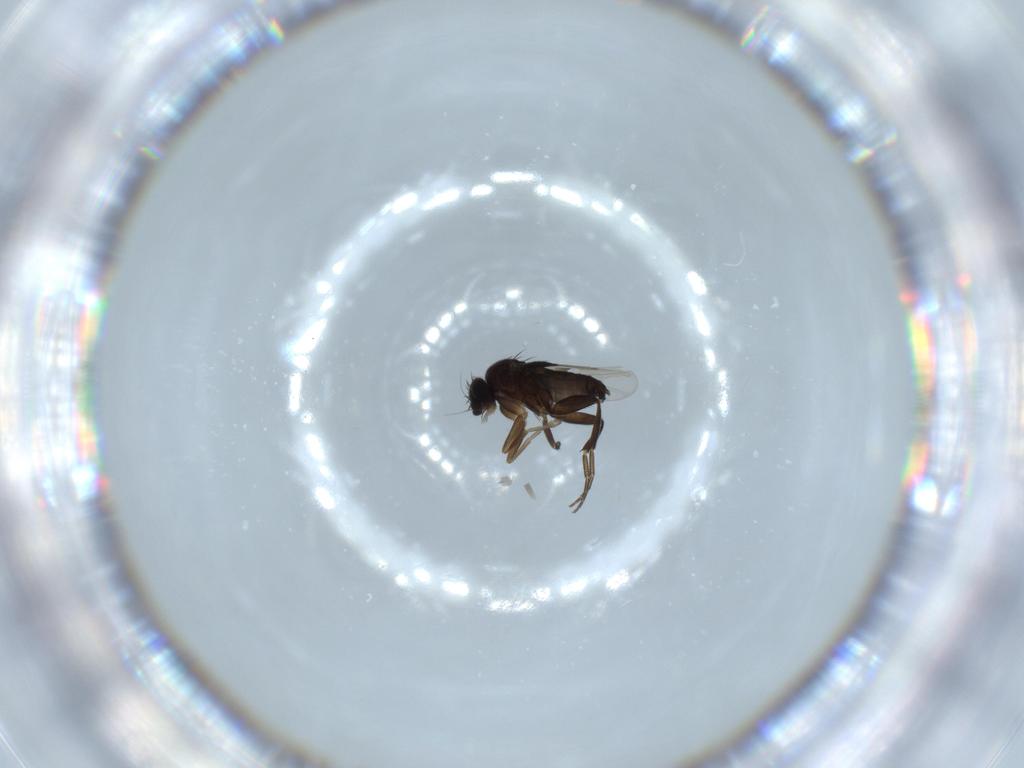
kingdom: Animalia
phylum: Arthropoda
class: Insecta
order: Diptera
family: Phoridae
